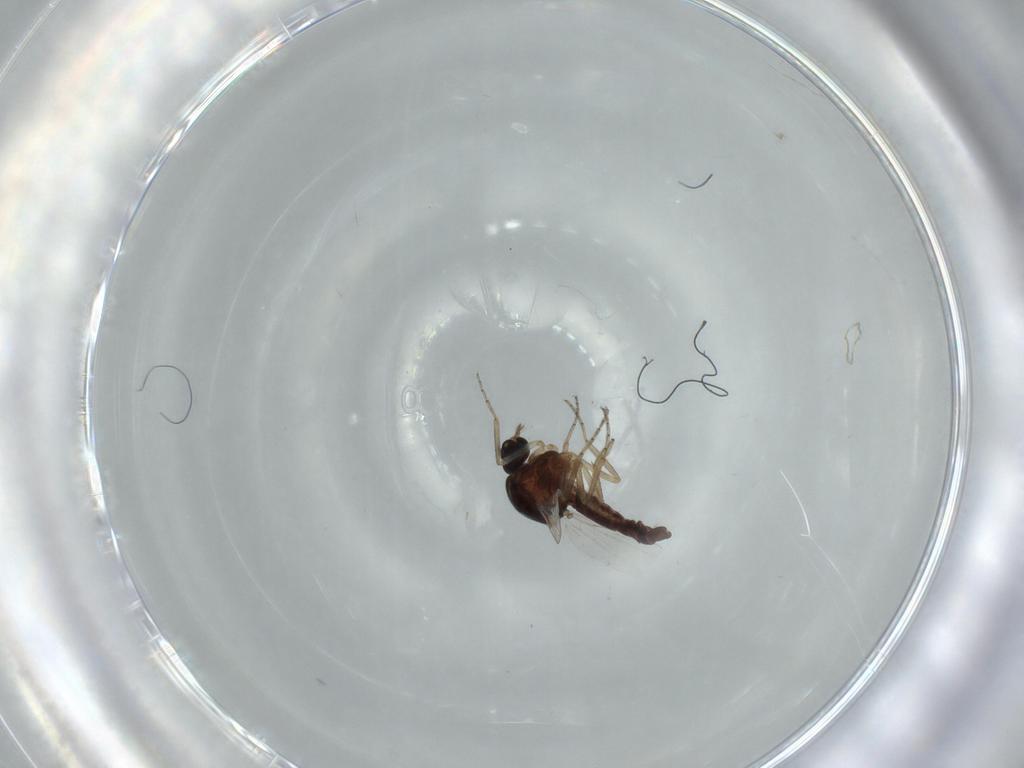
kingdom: Animalia
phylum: Arthropoda
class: Insecta
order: Diptera
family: Ceratopogonidae
